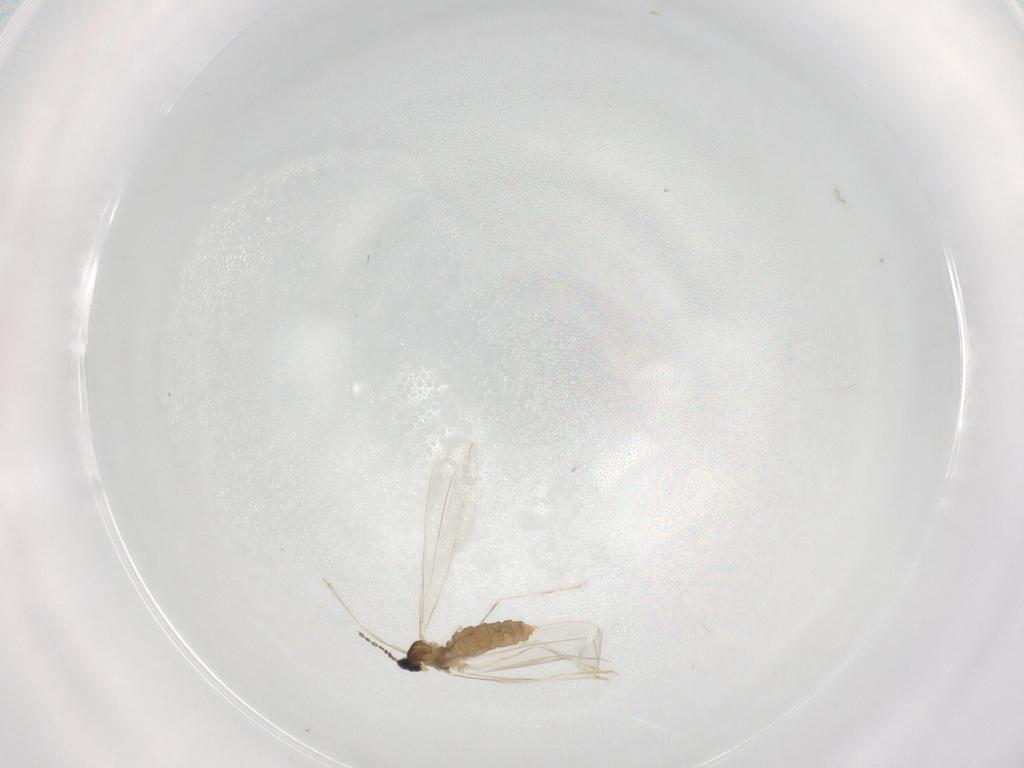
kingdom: Animalia
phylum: Arthropoda
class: Insecta
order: Diptera
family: Cecidomyiidae
